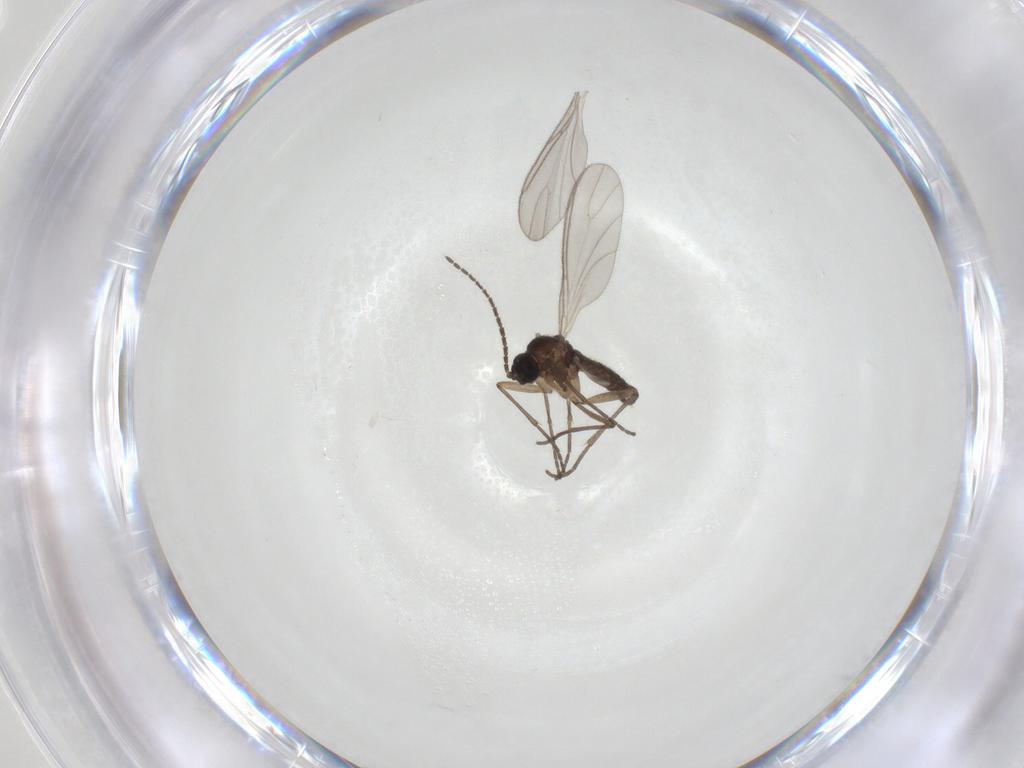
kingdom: Animalia
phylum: Arthropoda
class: Insecta
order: Diptera
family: Sciaridae
